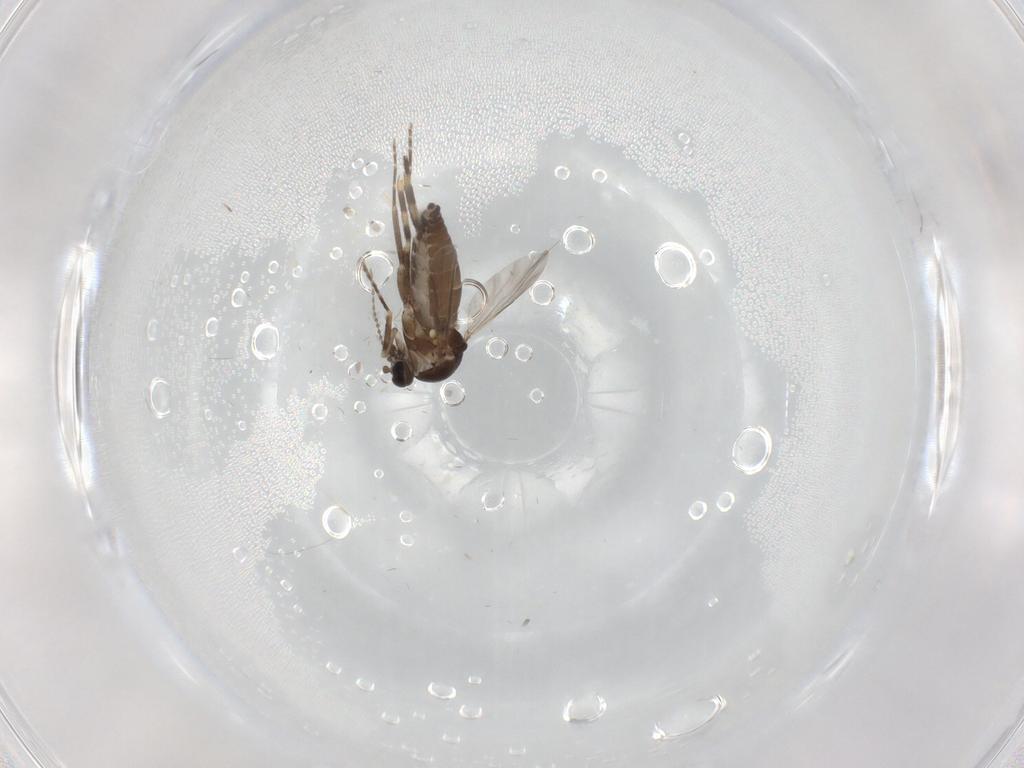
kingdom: Animalia
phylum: Arthropoda
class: Insecta
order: Diptera
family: Ceratopogonidae
